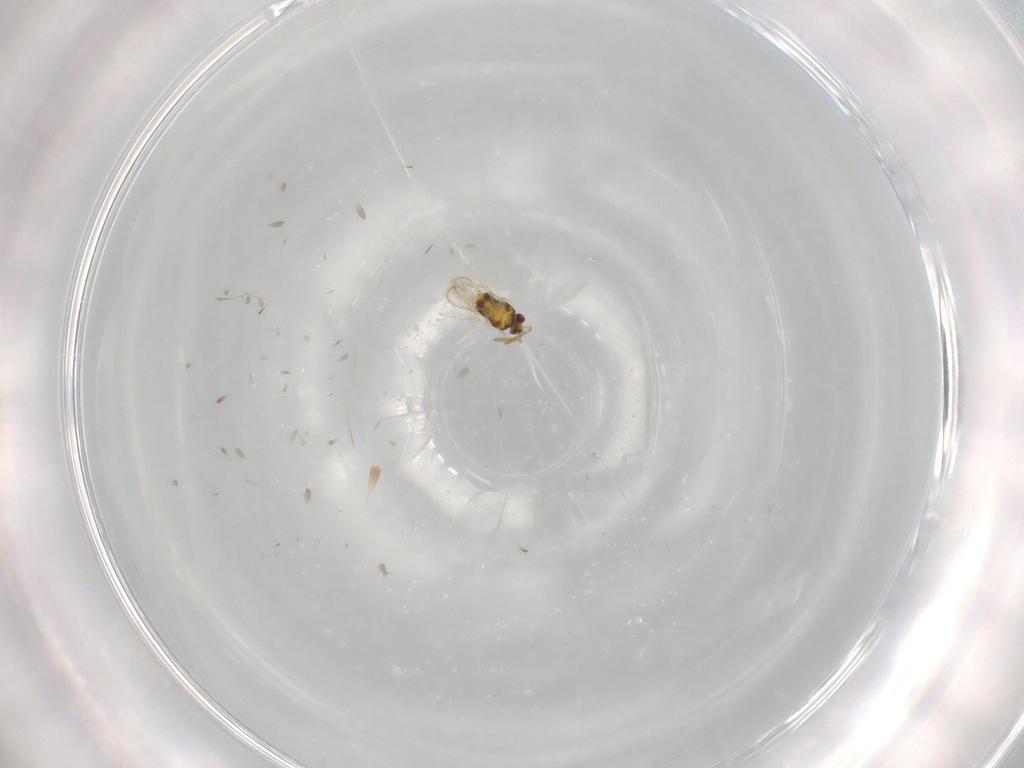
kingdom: Animalia
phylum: Arthropoda
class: Insecta
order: Hymenoptera
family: Aphelinidae
